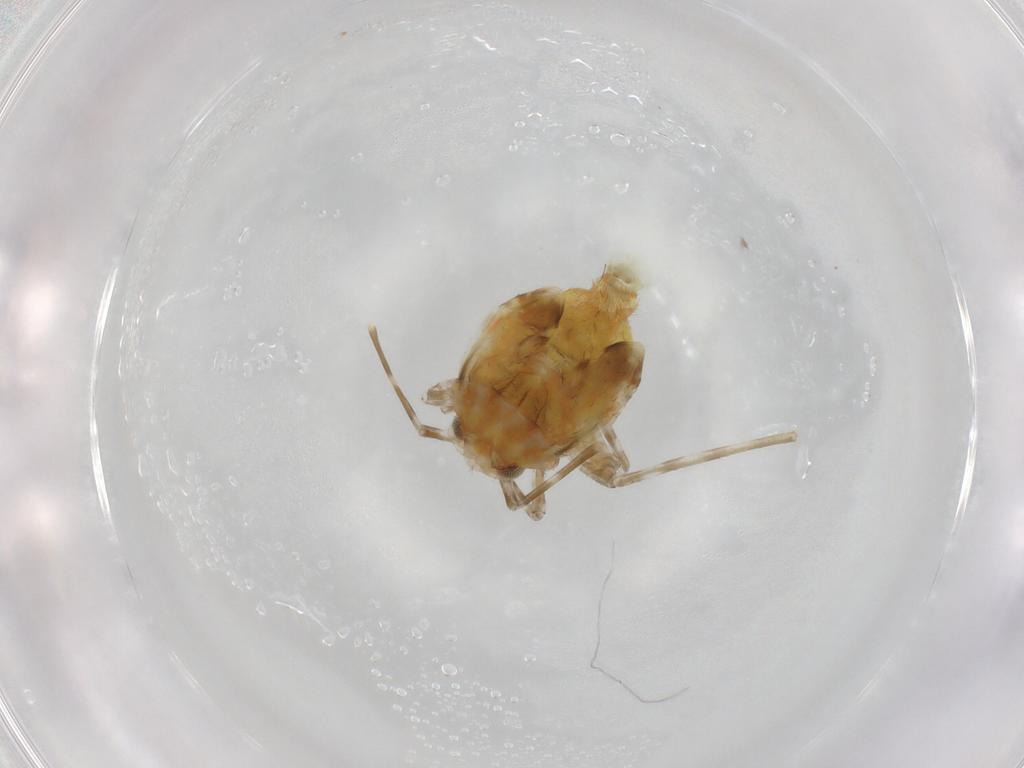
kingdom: Animalia
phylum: Arthropoda
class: Insecta
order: Hemiptera
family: Miridae
